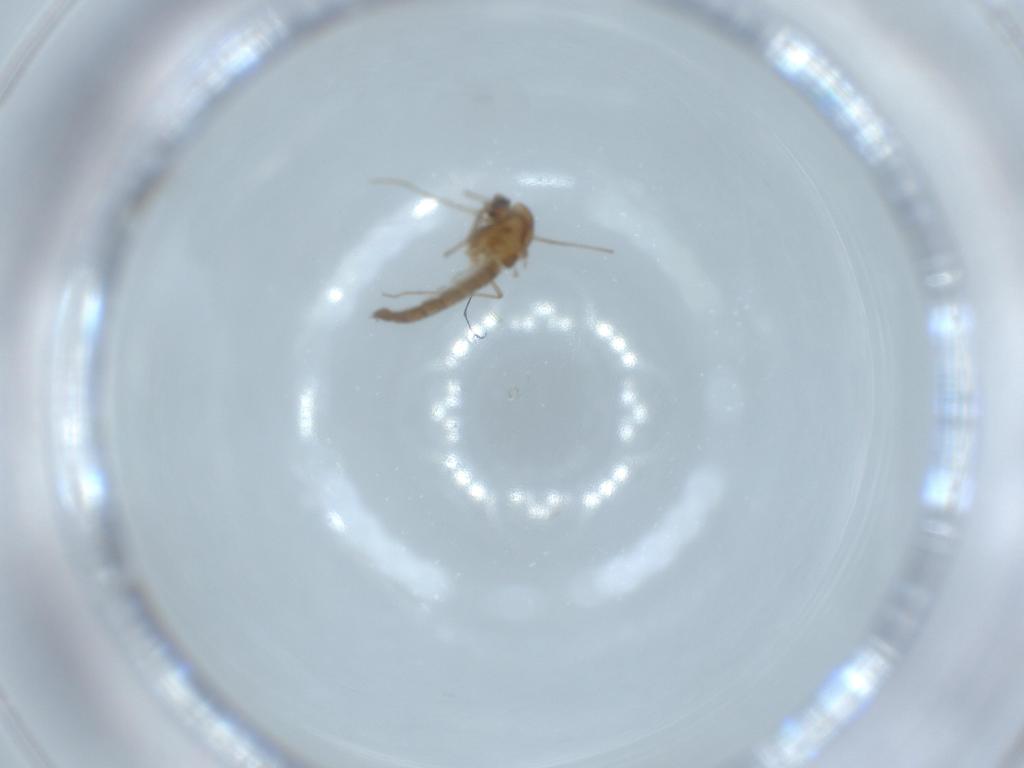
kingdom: Animalia
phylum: Arthropoda
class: Insecta
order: Diptera
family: Chironomidae
